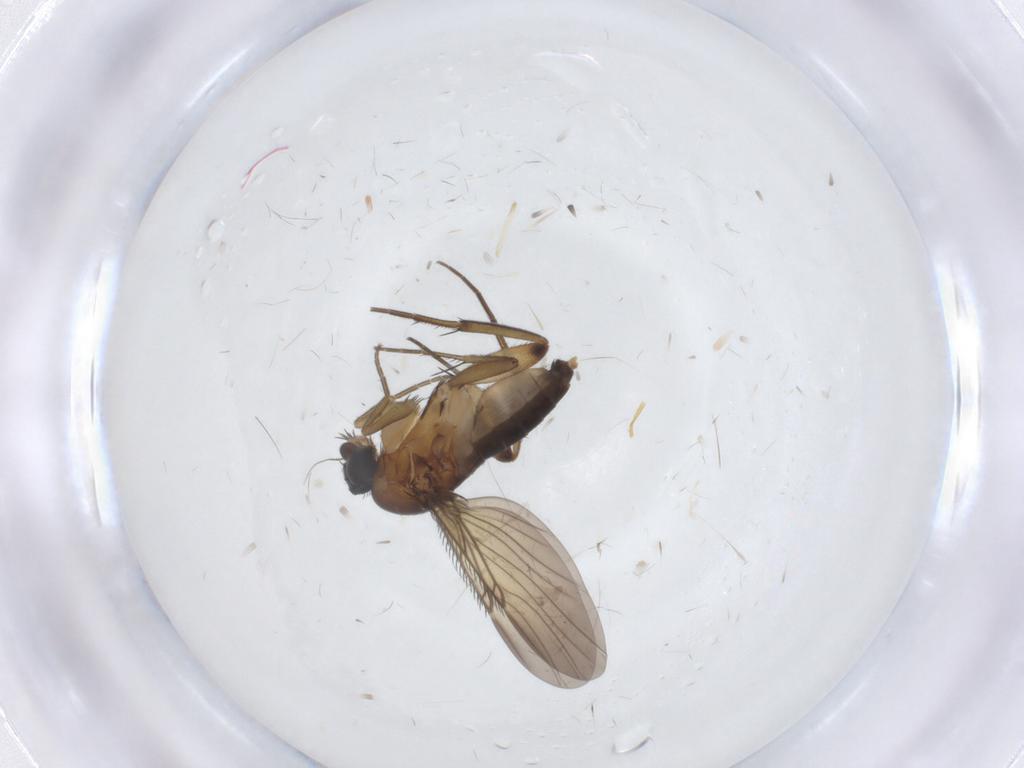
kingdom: Animalia
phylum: Arthropoda
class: Insecta
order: Diptera
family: Phoridae
